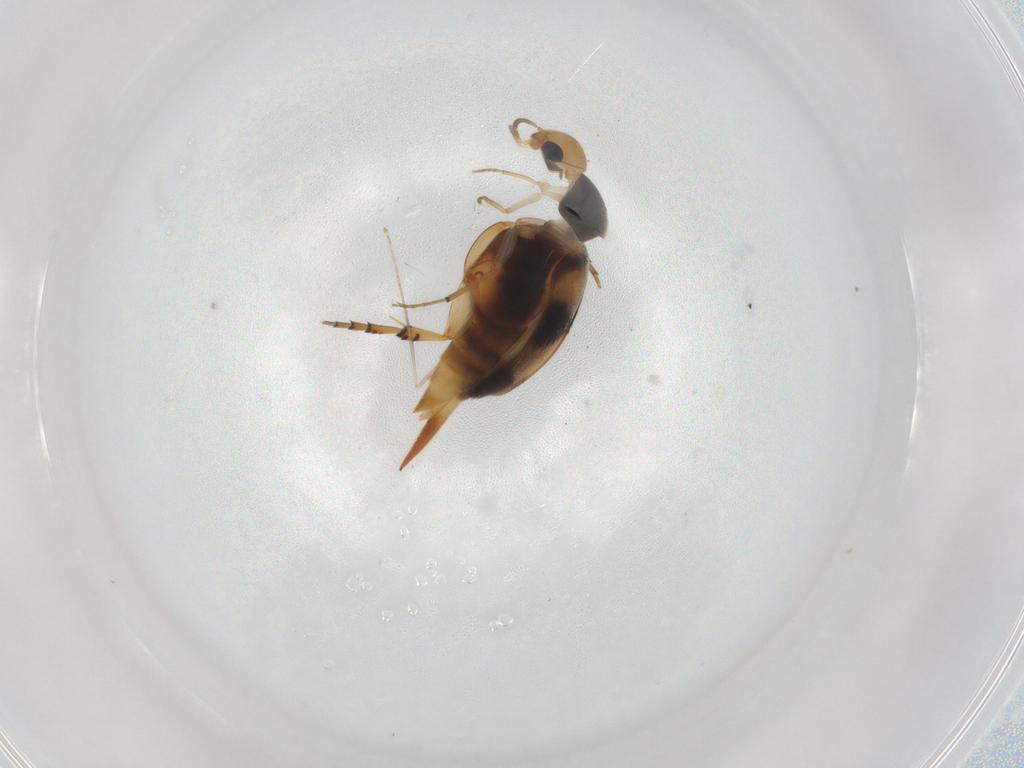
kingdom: Animalia
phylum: Arthropoda
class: Insecta
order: Coleoptera
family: Mordellidae
